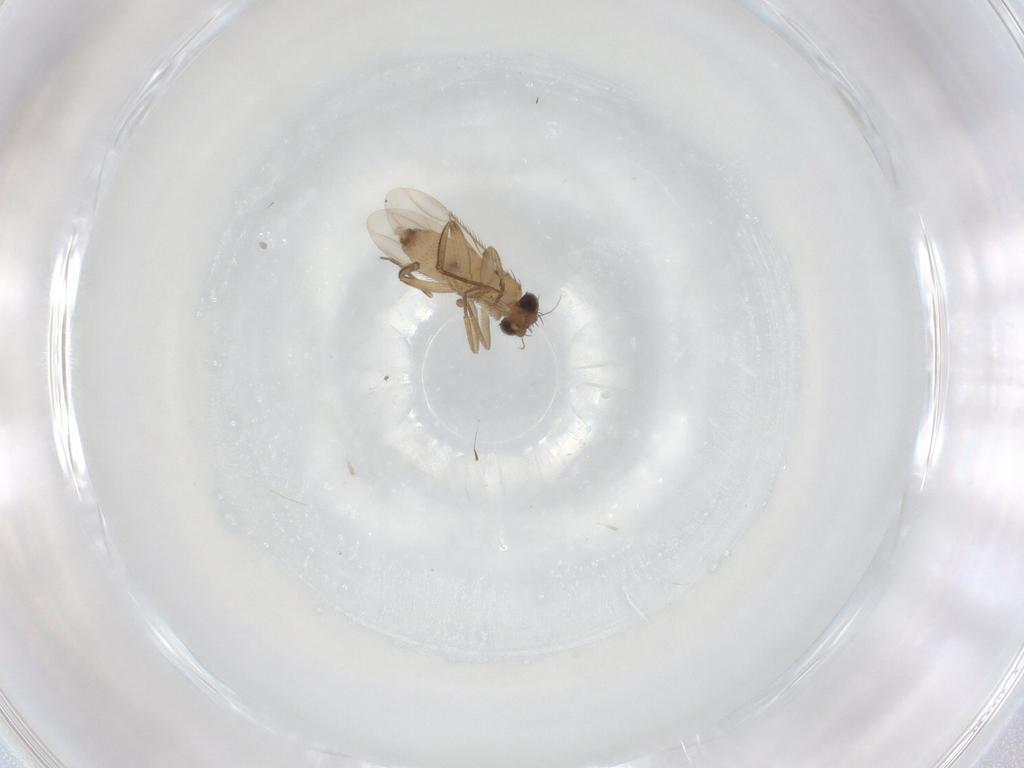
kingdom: Animalia
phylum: Arthropoda
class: Insecta
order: Diptera
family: Phoridae
